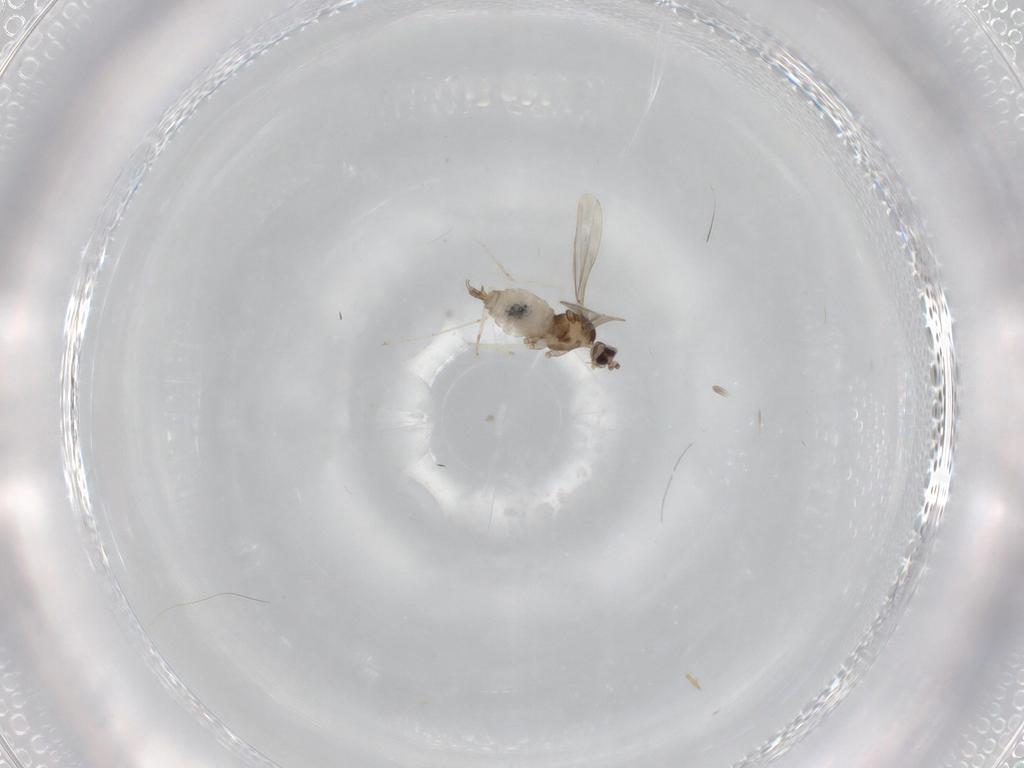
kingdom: Animalia
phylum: Arthropoda
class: Insecta
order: Diptera
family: Cecidomyiidae
